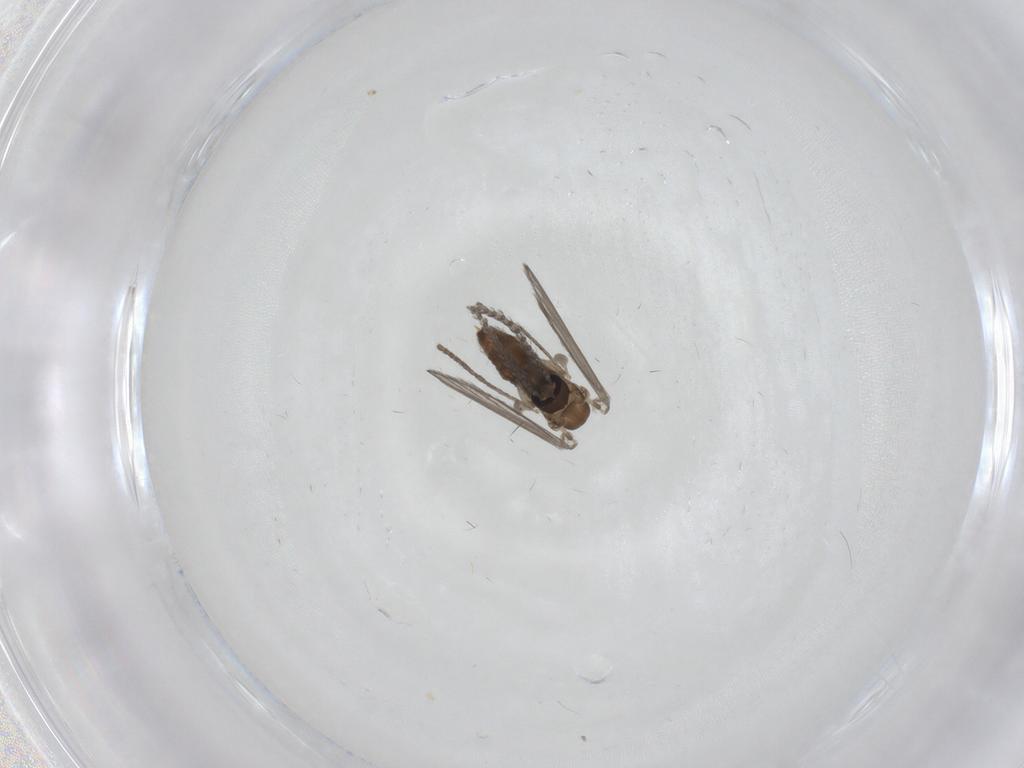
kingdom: Animalia
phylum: Arthropoda
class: Insecta
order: Diptera
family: Psychodidae
